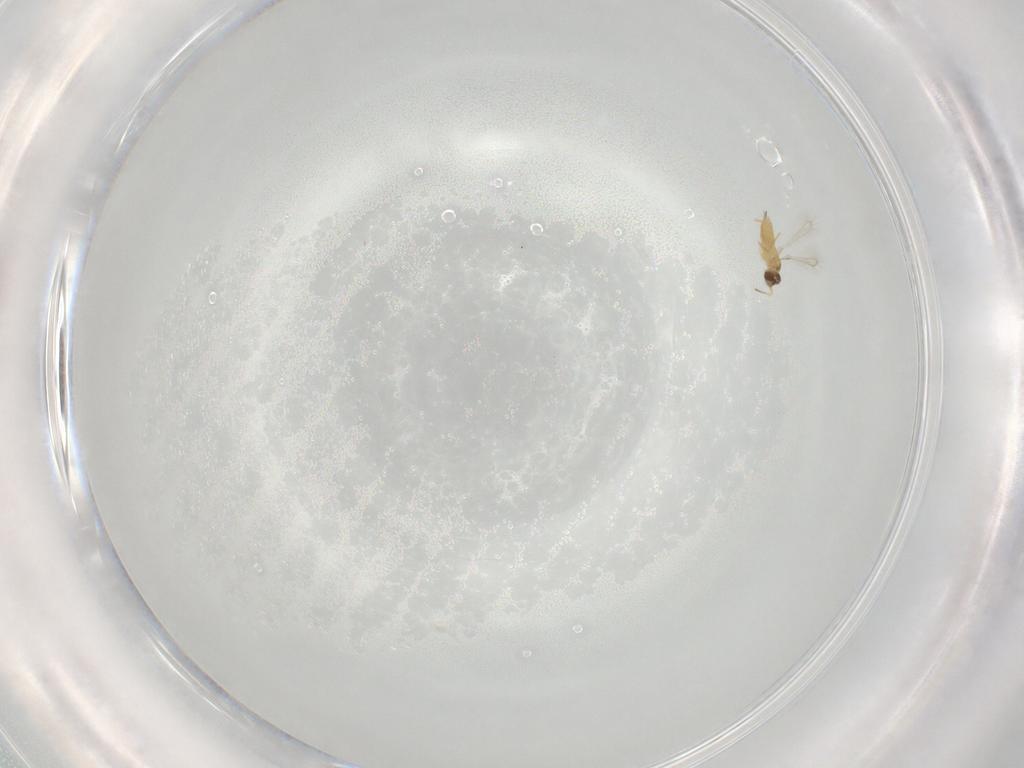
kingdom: Animalia
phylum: Arthropoda
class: Insecta
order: Hymenoptera
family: Mymaridae
